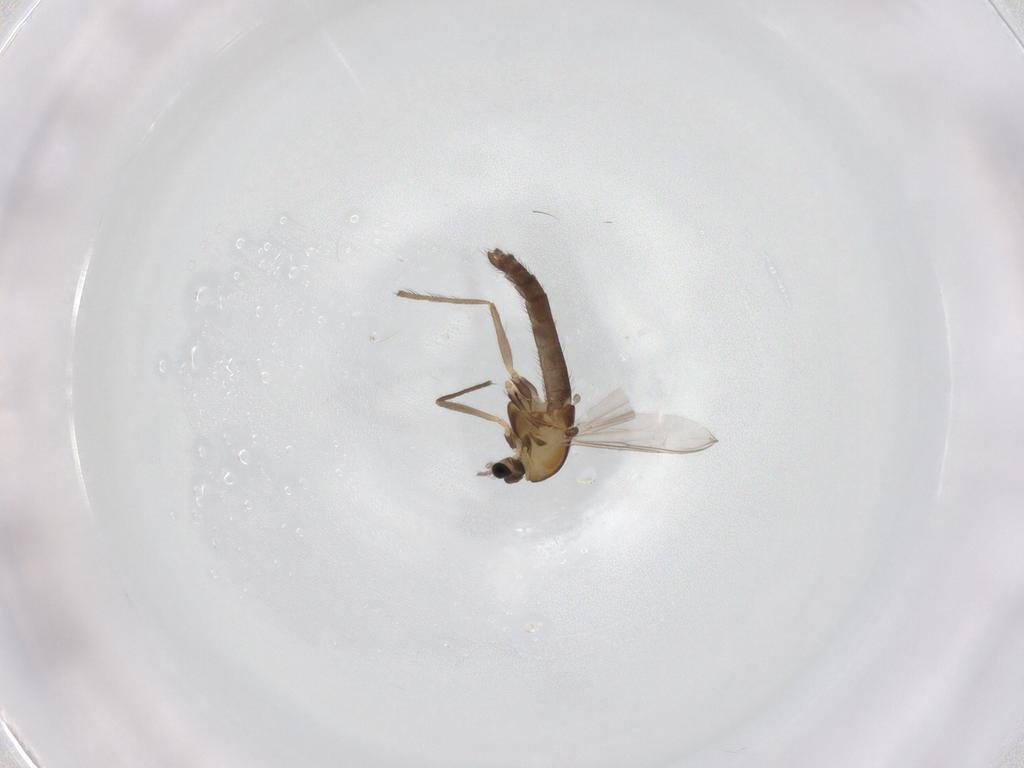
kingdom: Animalia
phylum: Arthropoda
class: Insecta
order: Diptera
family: Chironomidae
